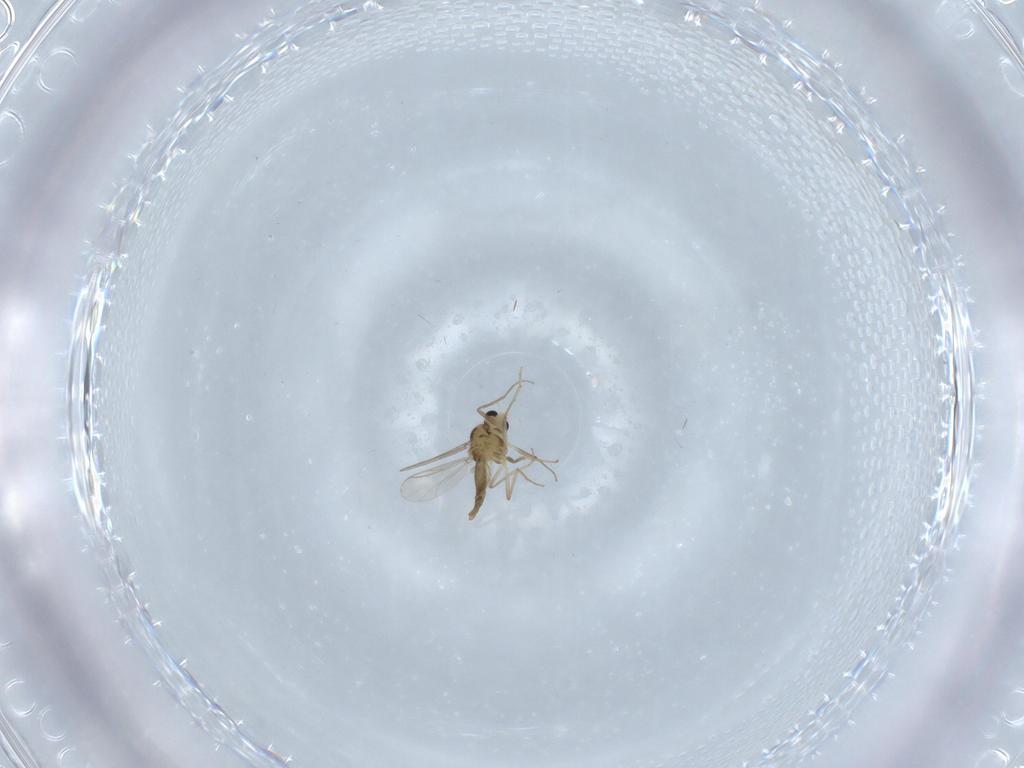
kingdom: Animalia
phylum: Arthropoda
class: Insecta
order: Diptera
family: Chironomidae
